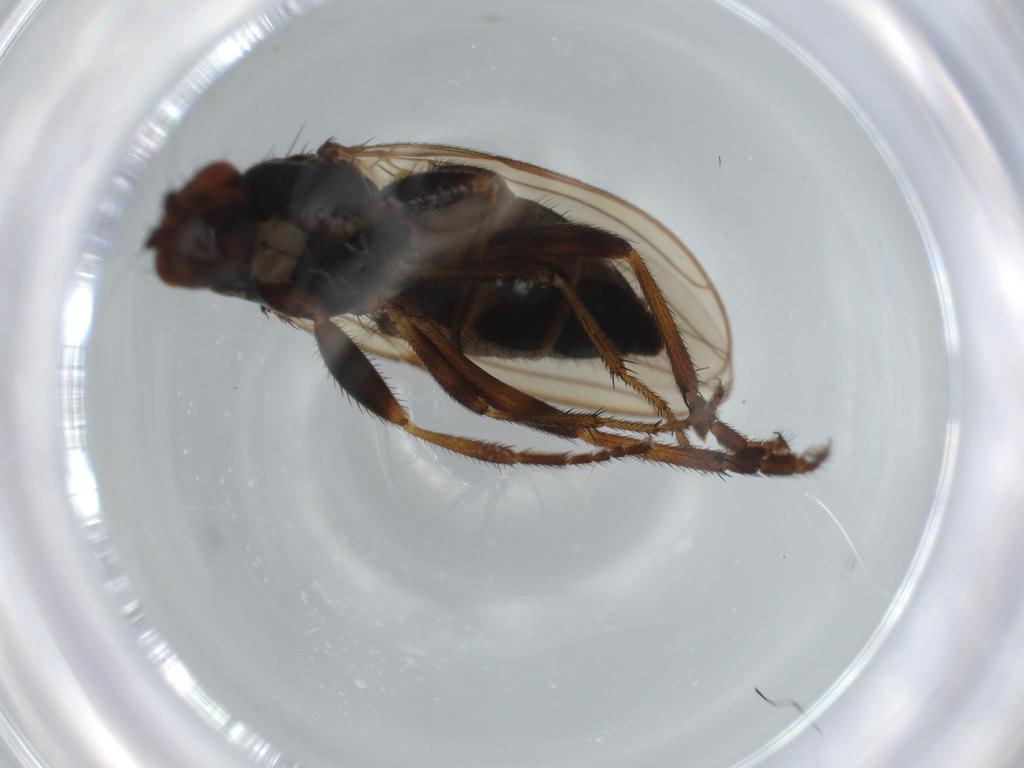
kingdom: Animalia
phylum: Arthropoda
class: Insecta
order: Diptera
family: Sphaeroceridae
